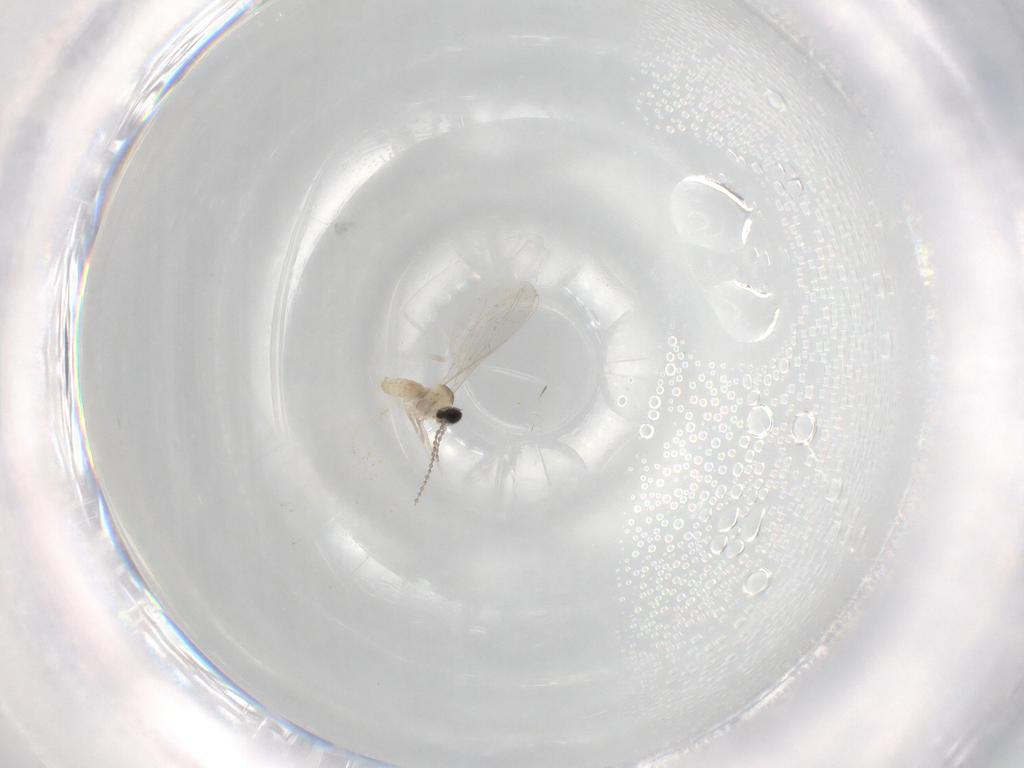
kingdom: Animalia
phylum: Arthropoda
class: Insecta
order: Diptera
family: Cecidomyiidae
